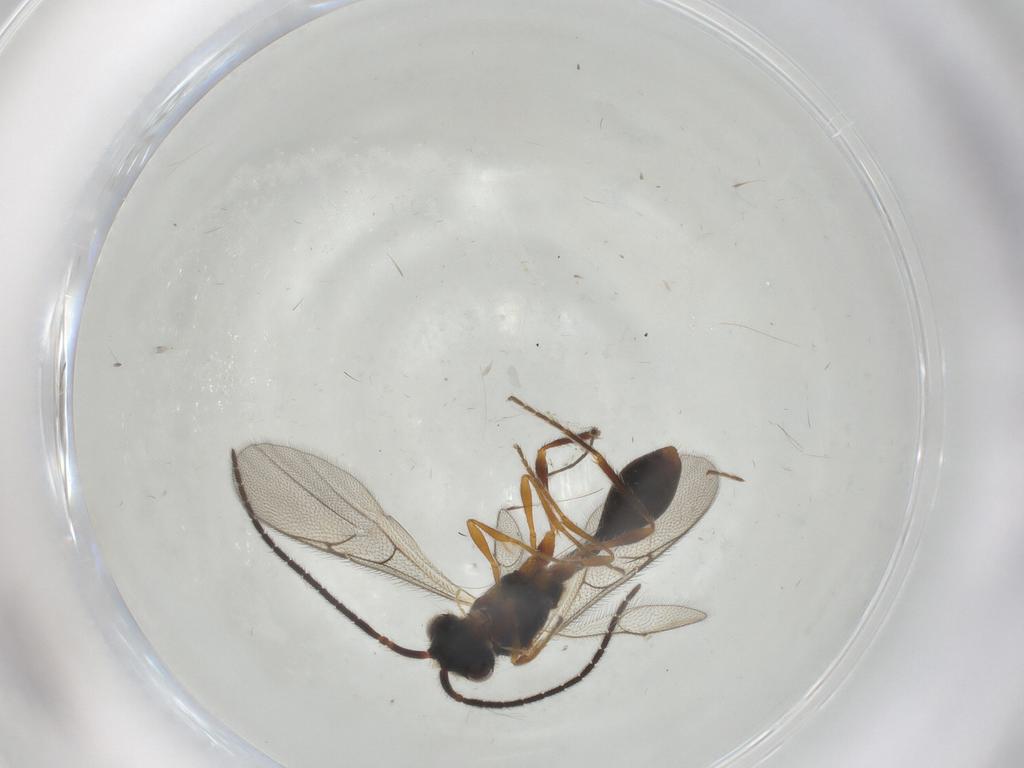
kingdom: Animalia
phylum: Arthropoda
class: Insecta
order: Hymenoptera
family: Diapriidae
